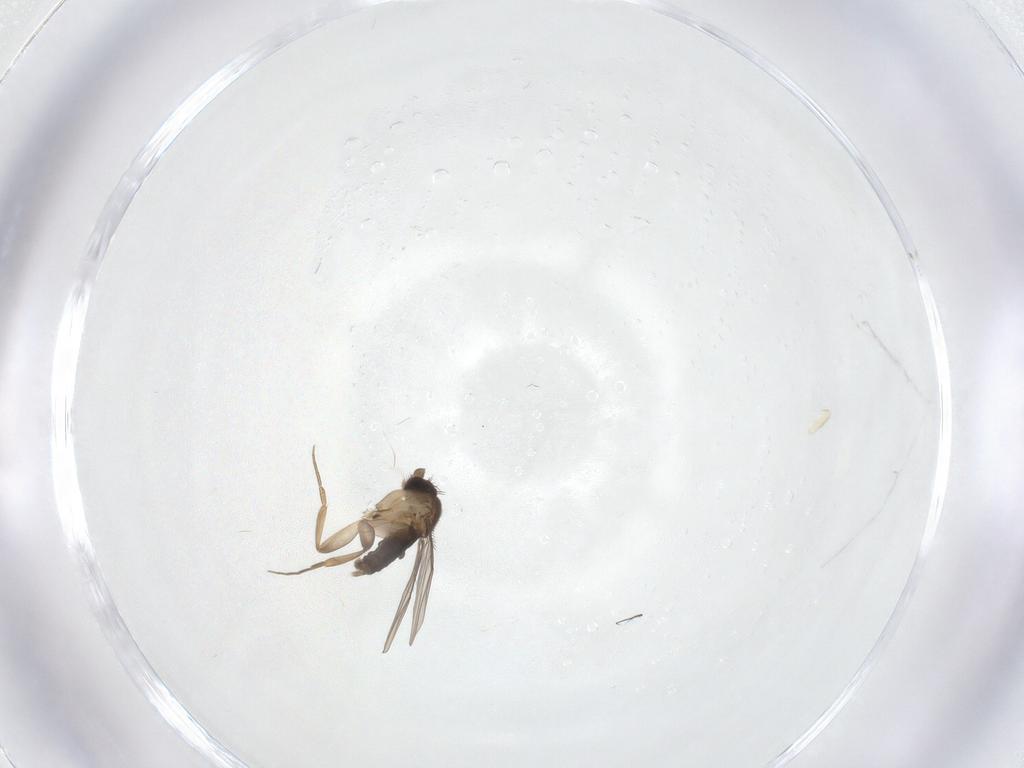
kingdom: Animalia
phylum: Arthropoda
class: Insecta
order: Diptera
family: Phoridae
